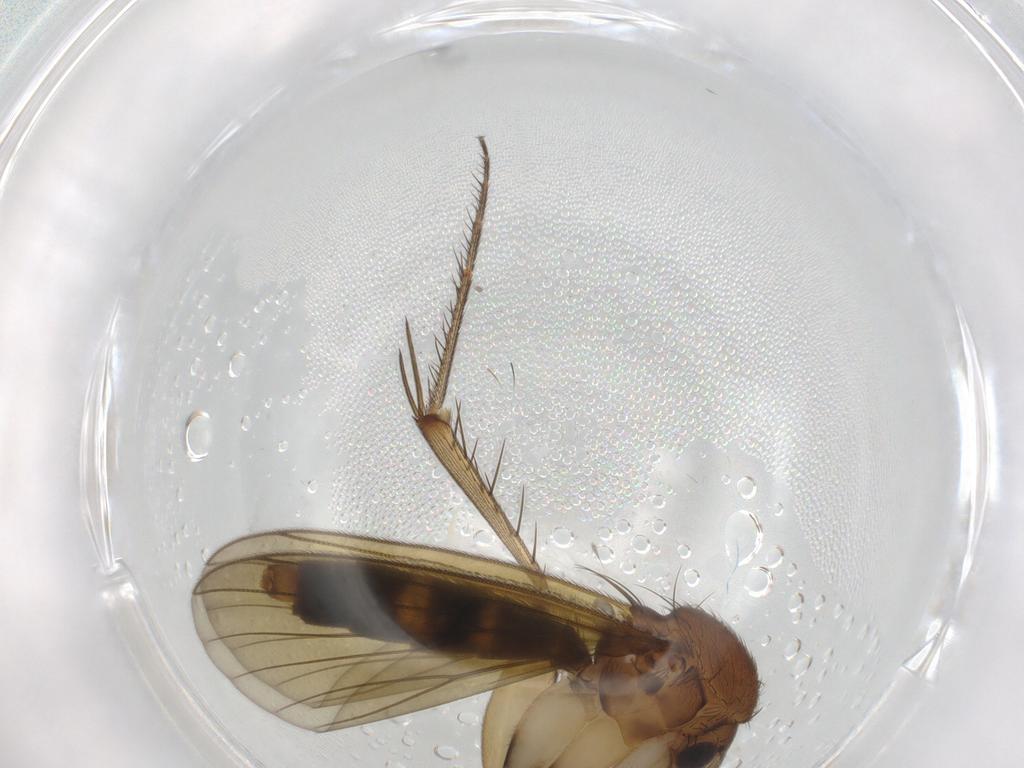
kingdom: Animalia
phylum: Arthropoda
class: Insecta
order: Diptera
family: Mycetophilidae
